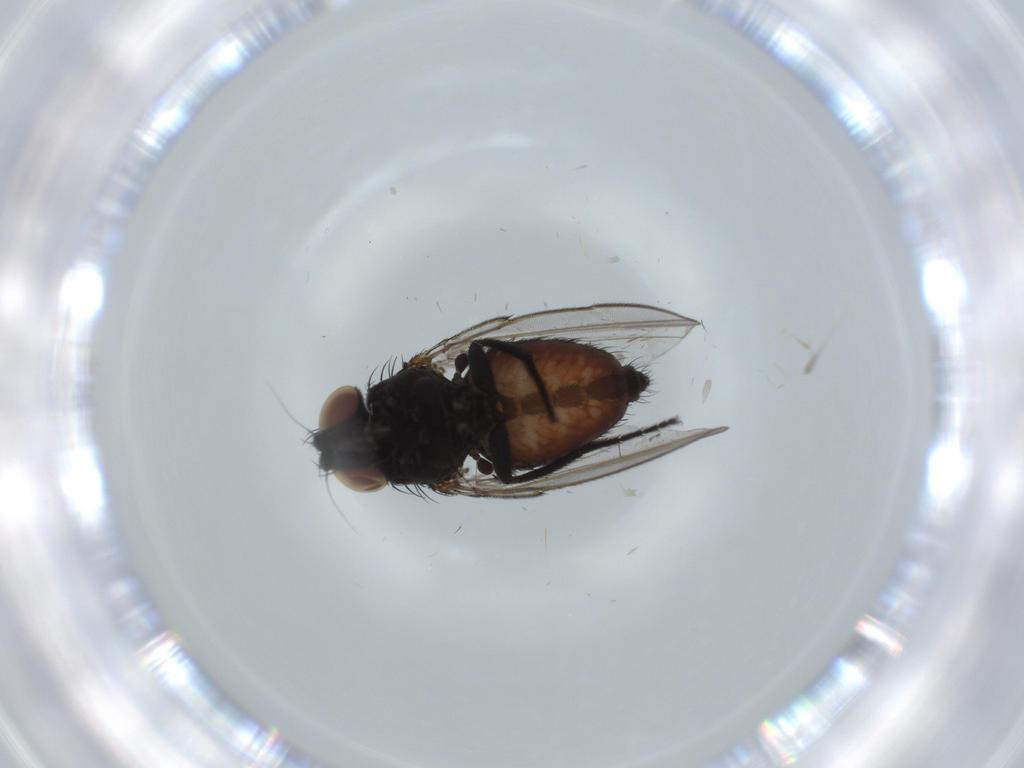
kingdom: Animalia
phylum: Arthropoda
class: Insecta
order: Diptera
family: Milichiidae
